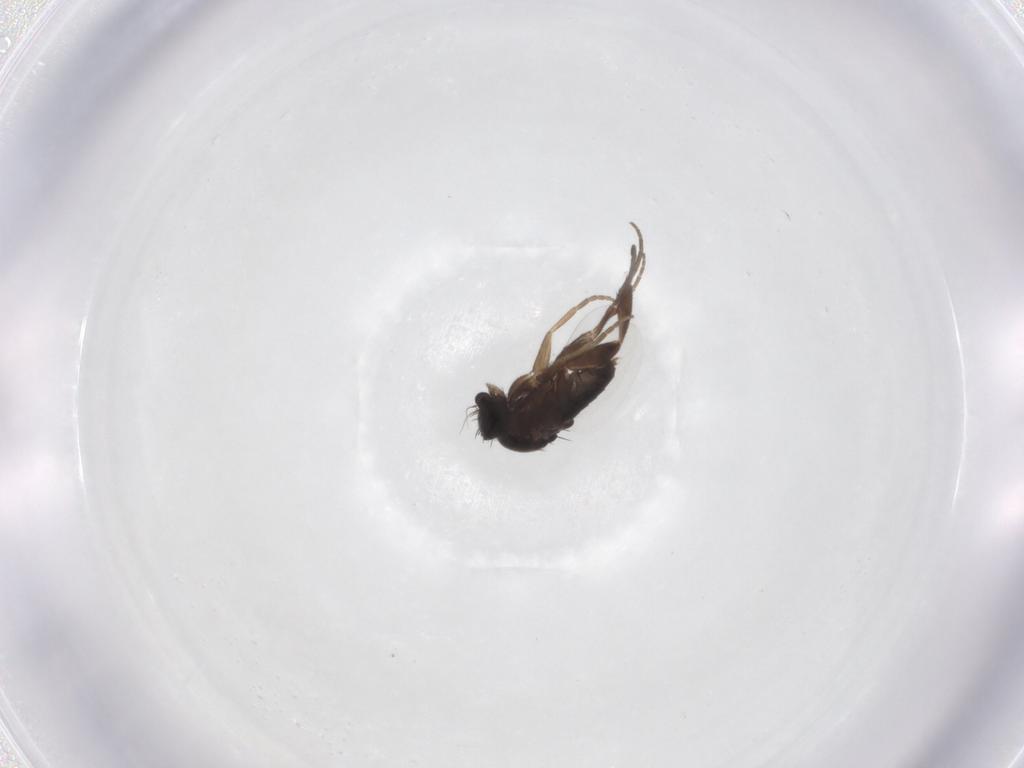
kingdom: Animalia
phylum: Arthropoda
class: Insecta
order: Diptera
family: Phoridae
